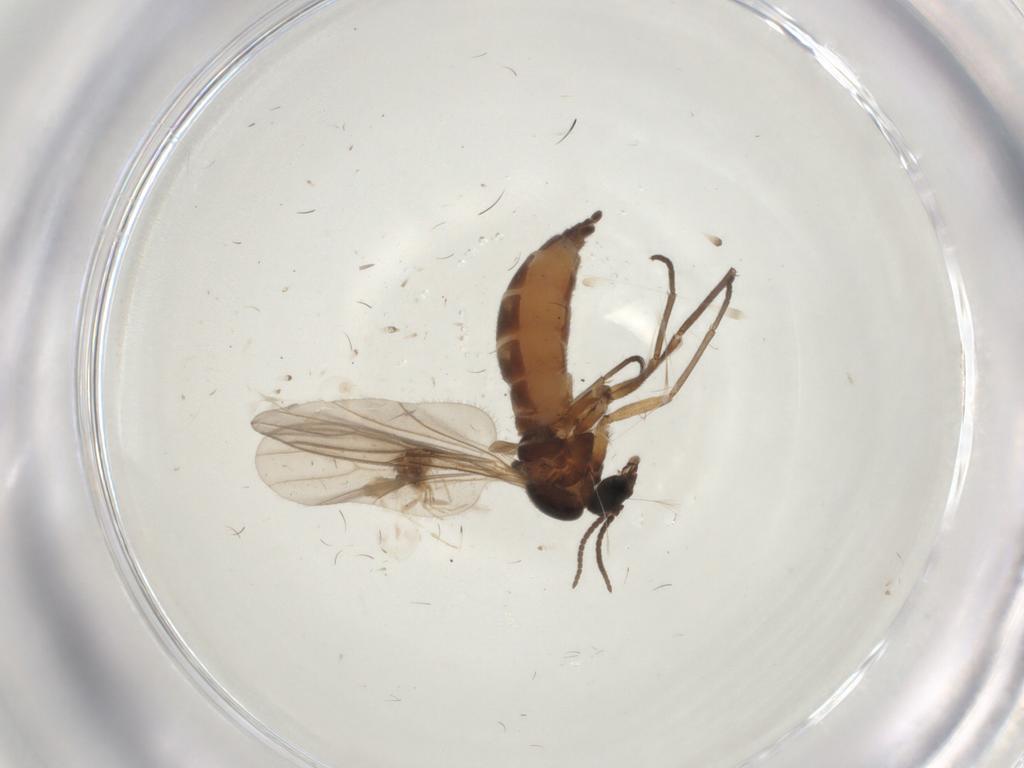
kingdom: Animalia
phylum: Arthropoda
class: Insecta
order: Diptera
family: Sciaridae
